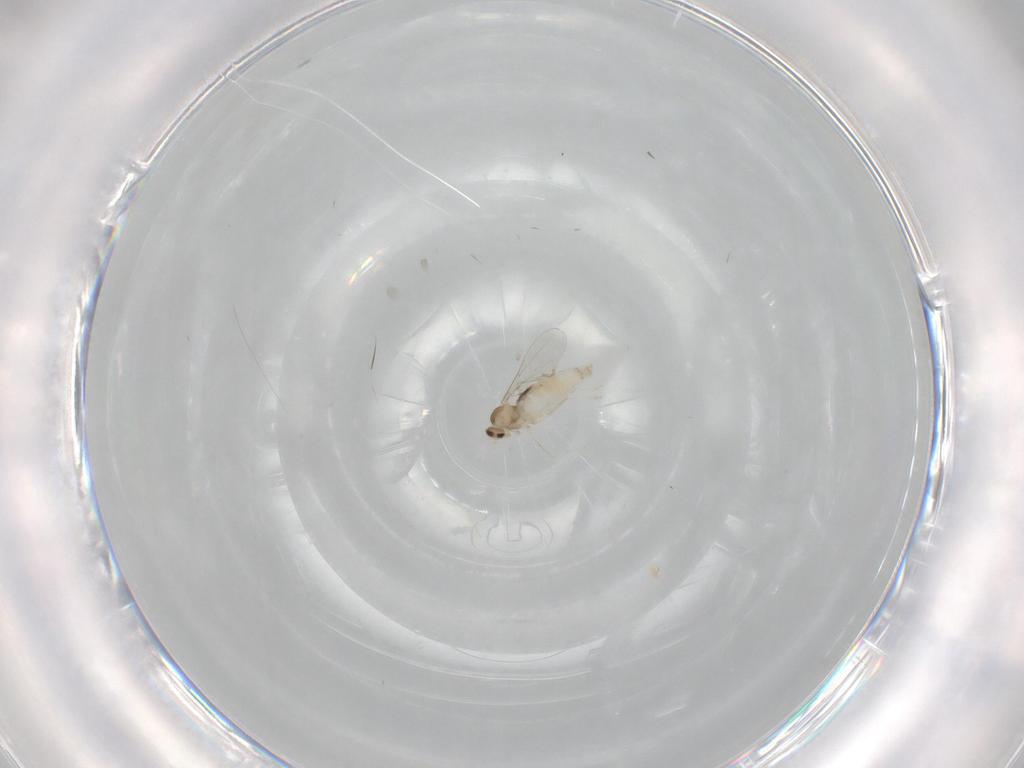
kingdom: Animalia
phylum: Arthropoda
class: Insecta
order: Diptera
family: Cecidomyiidae
